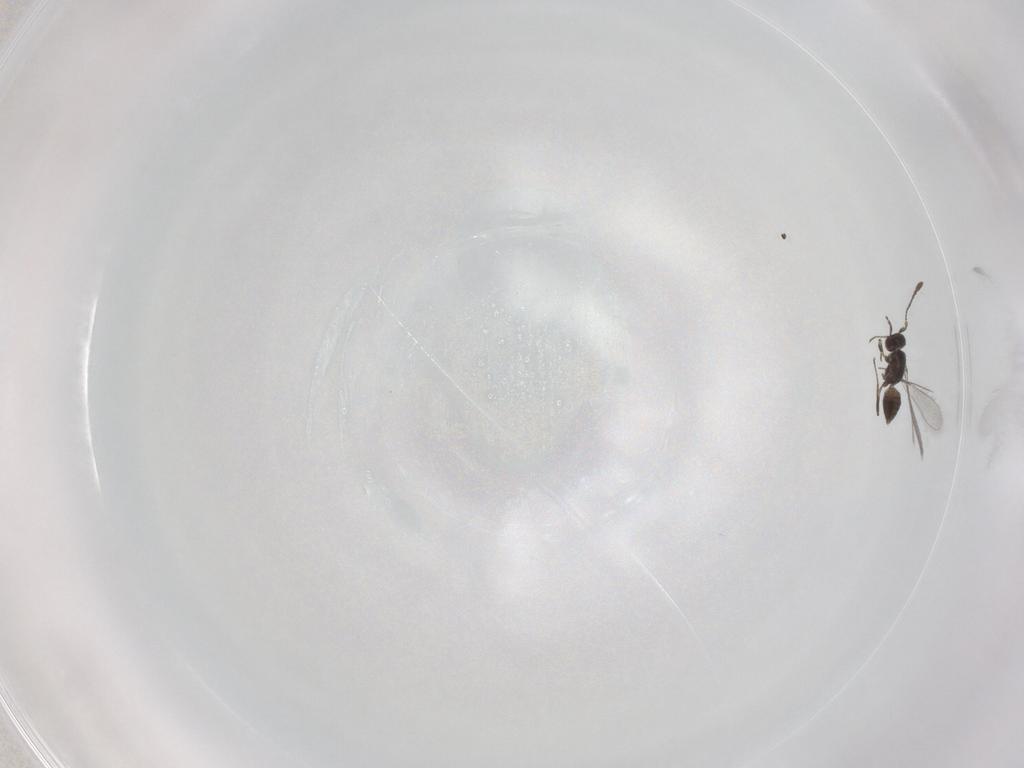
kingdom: Animalia
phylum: Arthropoda
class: Insecta
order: Hymenoptera
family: Mymaridae
